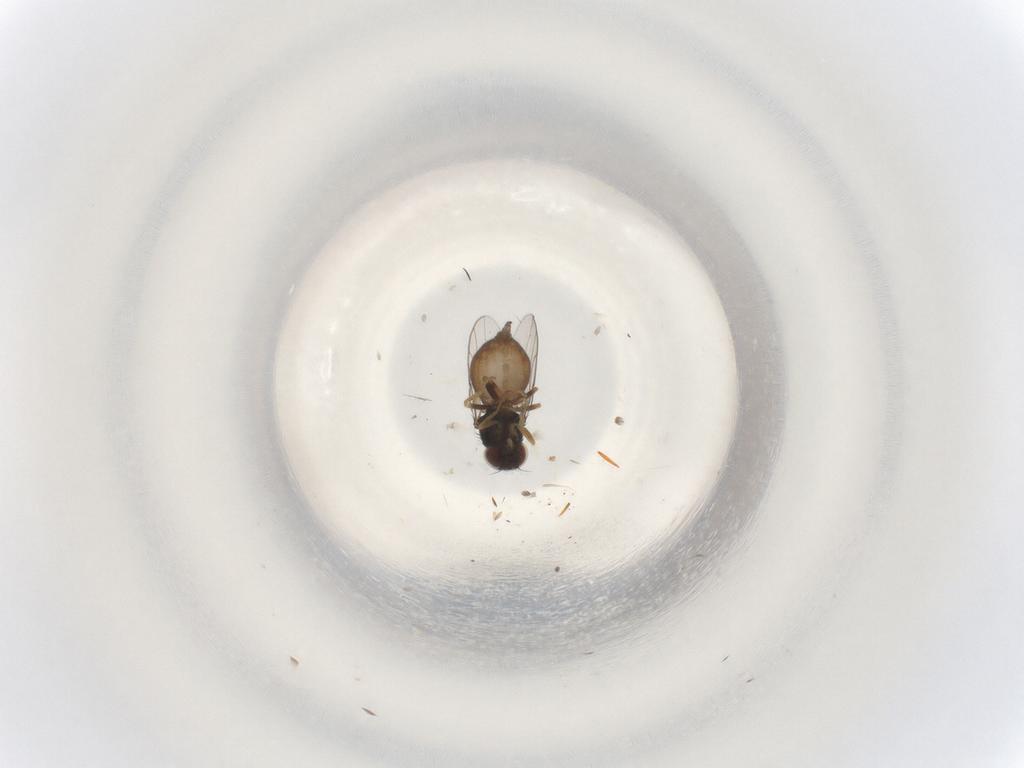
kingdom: Animalia
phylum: Arthropoda
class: Insecta
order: Diptera
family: Chloropidae
